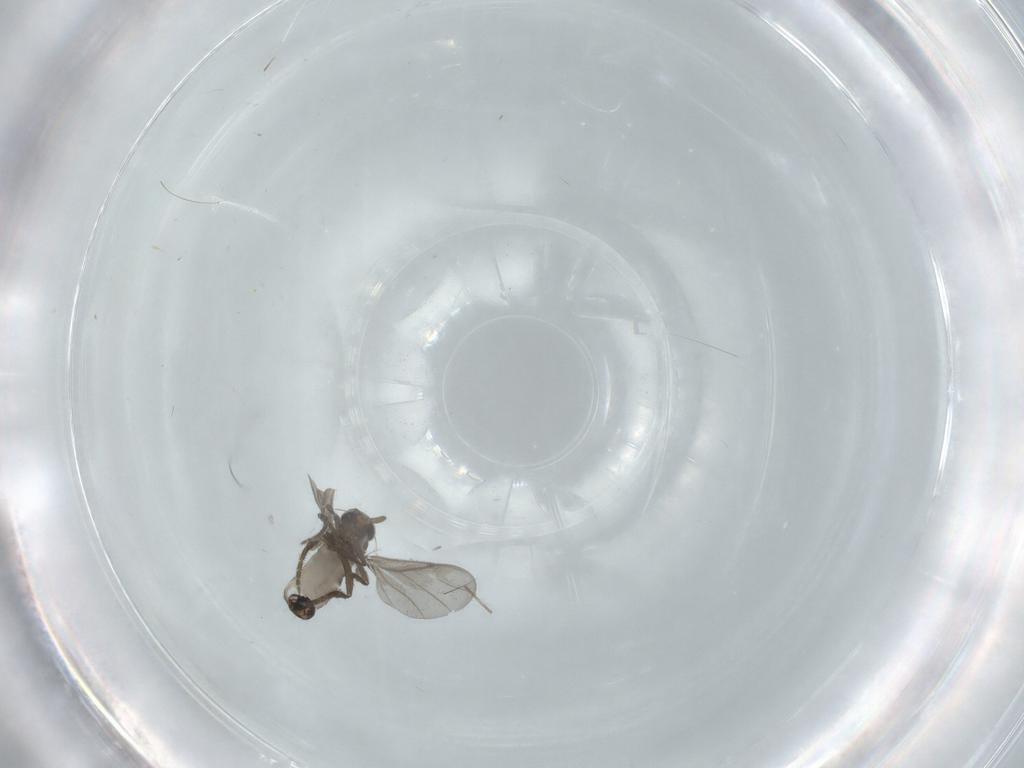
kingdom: Animalia
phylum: Arthropoda
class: Insecta
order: Diptera
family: Phoridae
